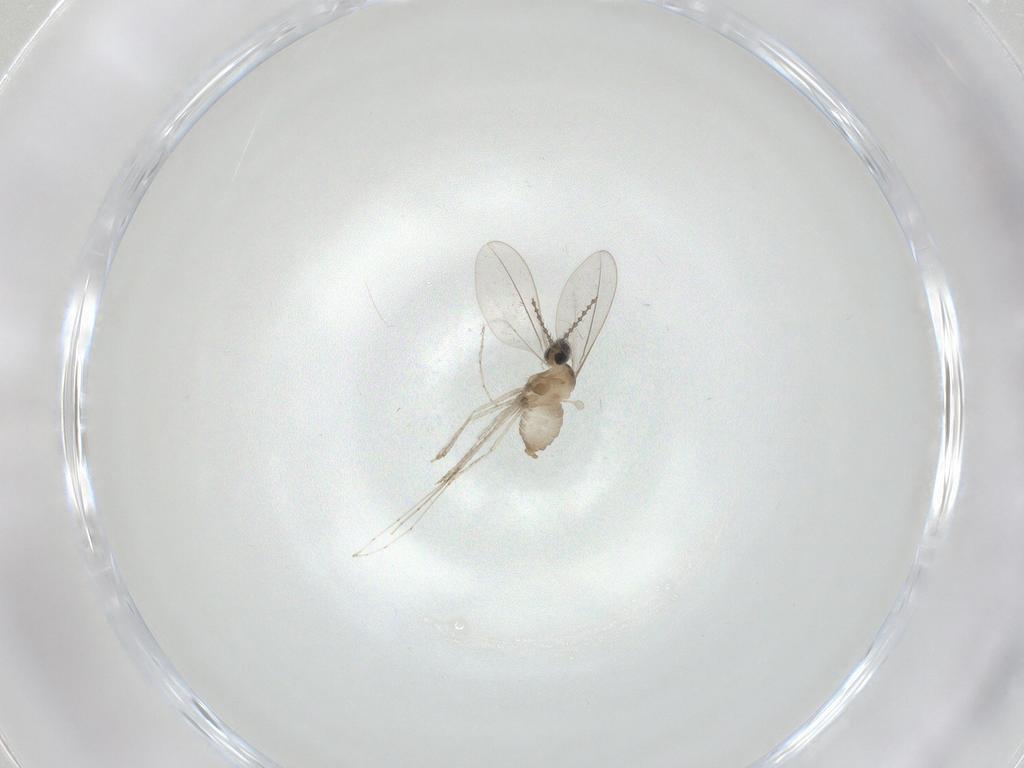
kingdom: Animalia
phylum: Arthropoda
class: Insecta
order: Diptera
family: Cecidomyiidae
